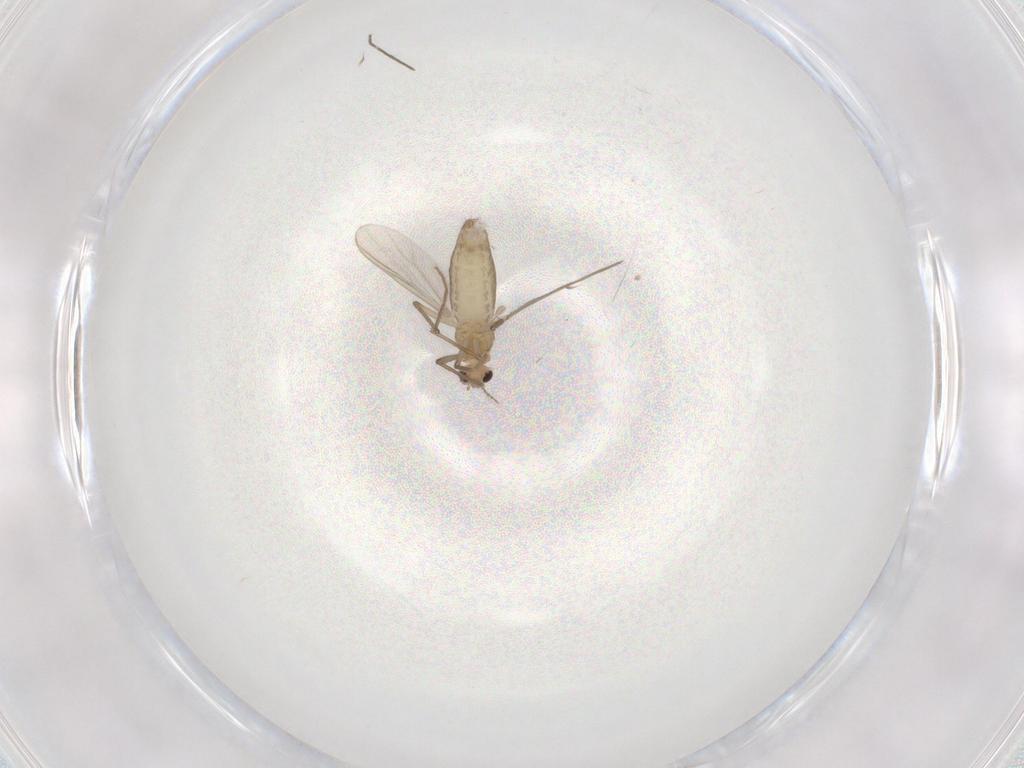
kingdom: Animalia
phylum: Arthropoda
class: Insecta
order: Diptera
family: Chironomidae
